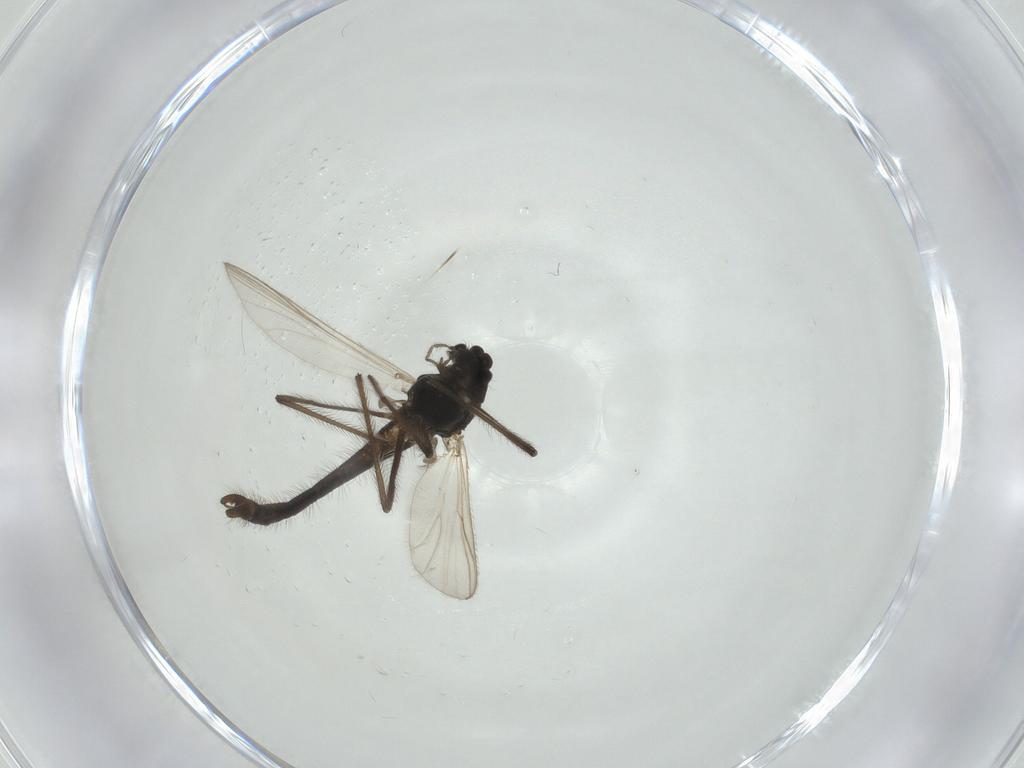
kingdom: Animalia
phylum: Arthropoda
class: Insecta
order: Diptera
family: Chironomidae
